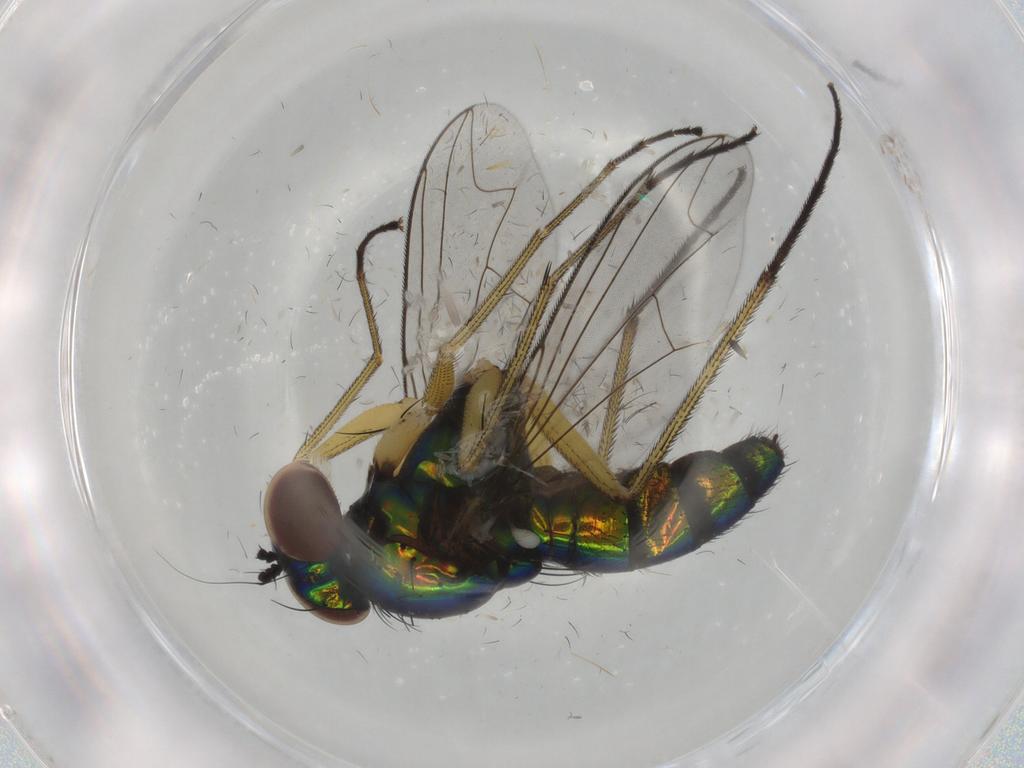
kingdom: Animalia
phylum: Arthropoda
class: Insecta
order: Diptera
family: Dolichopodidae
